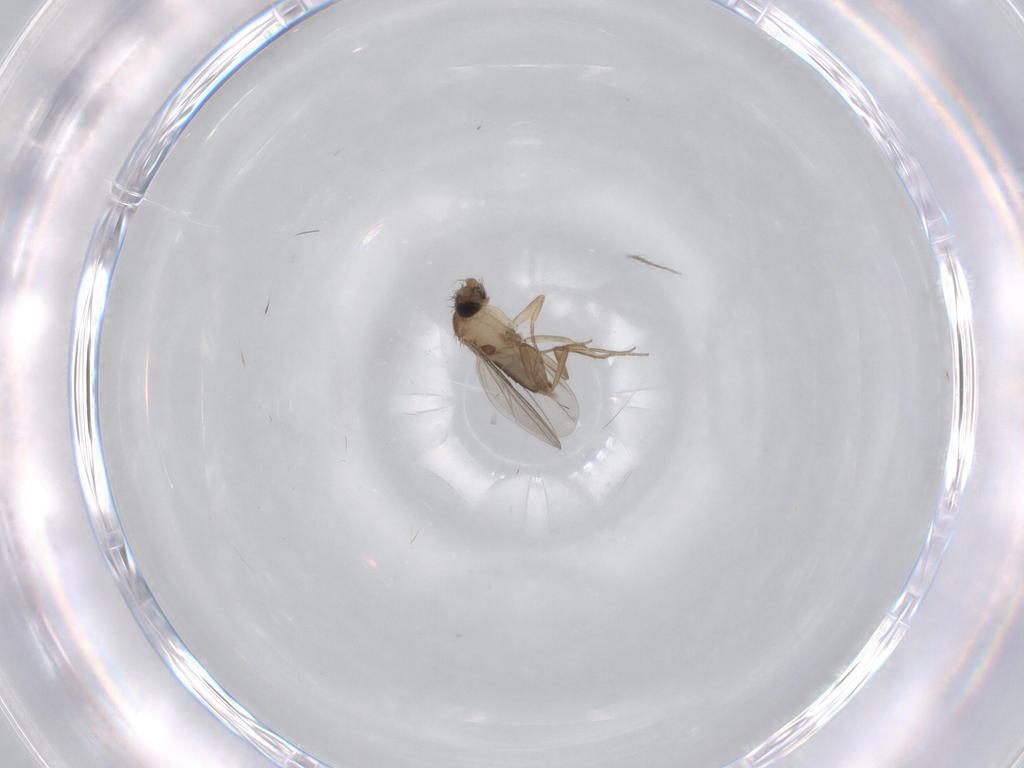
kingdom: Animalia
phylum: Arthropoda
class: Insecta
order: Diptera
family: Phoridae
